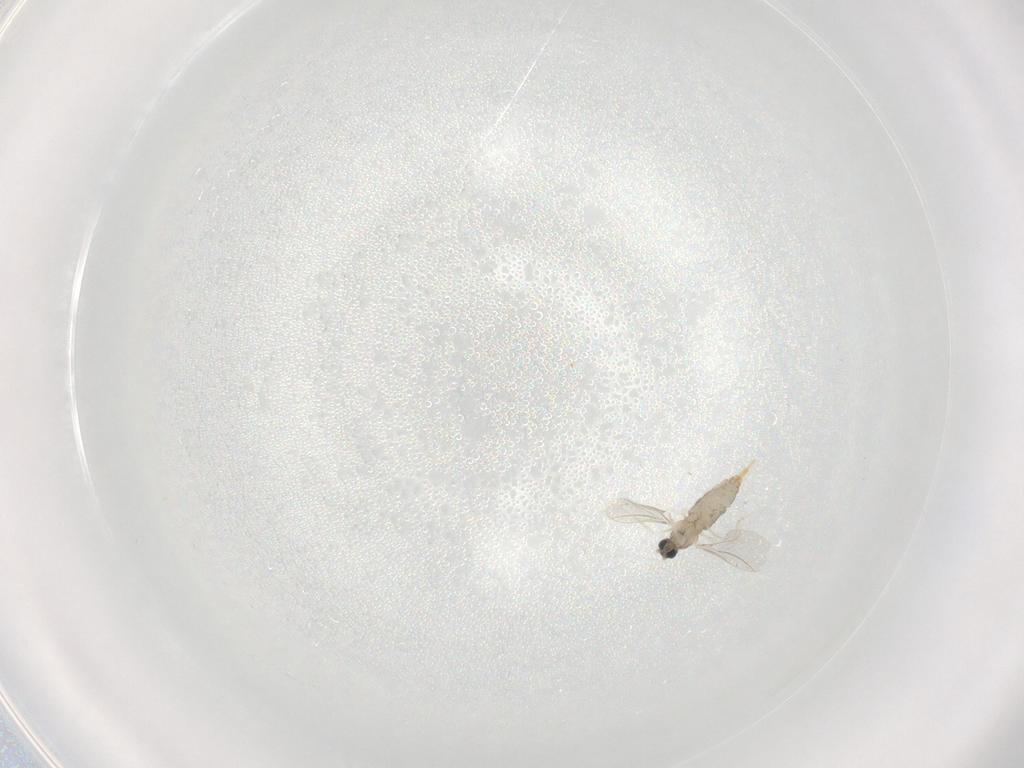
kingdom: Animalia
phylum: Arthropoda
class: Insecta
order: Diptera
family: Cecidomyiidae
